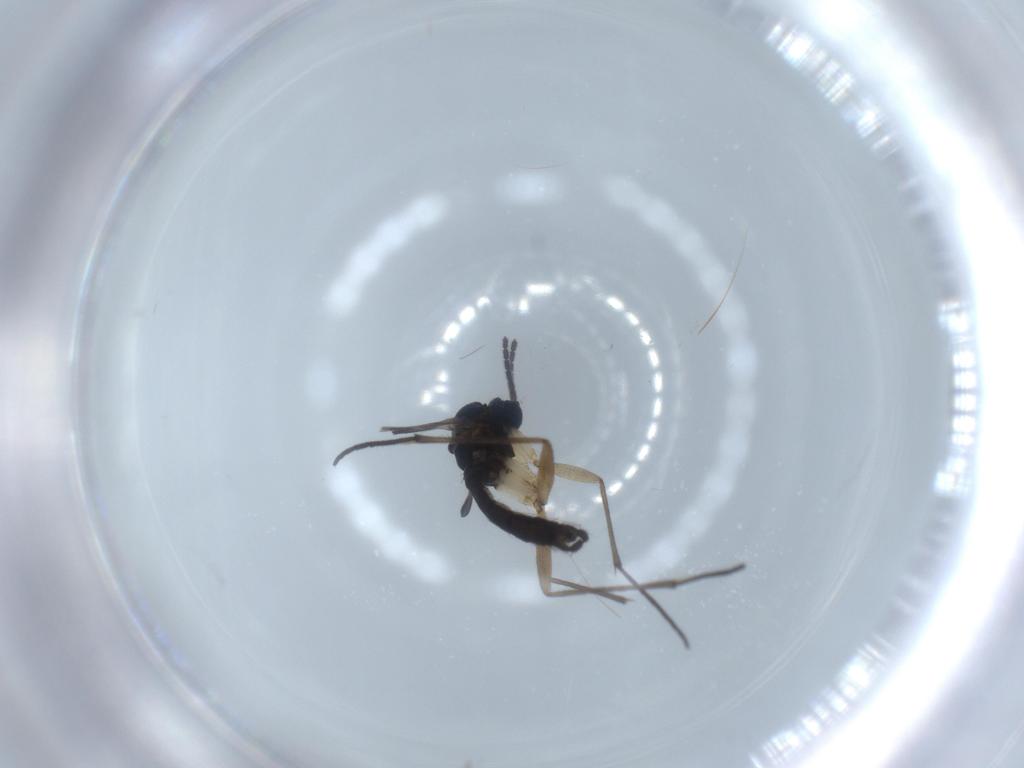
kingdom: Animalia
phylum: Arthropoda
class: Insecta
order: Diptera
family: Sciaridae
